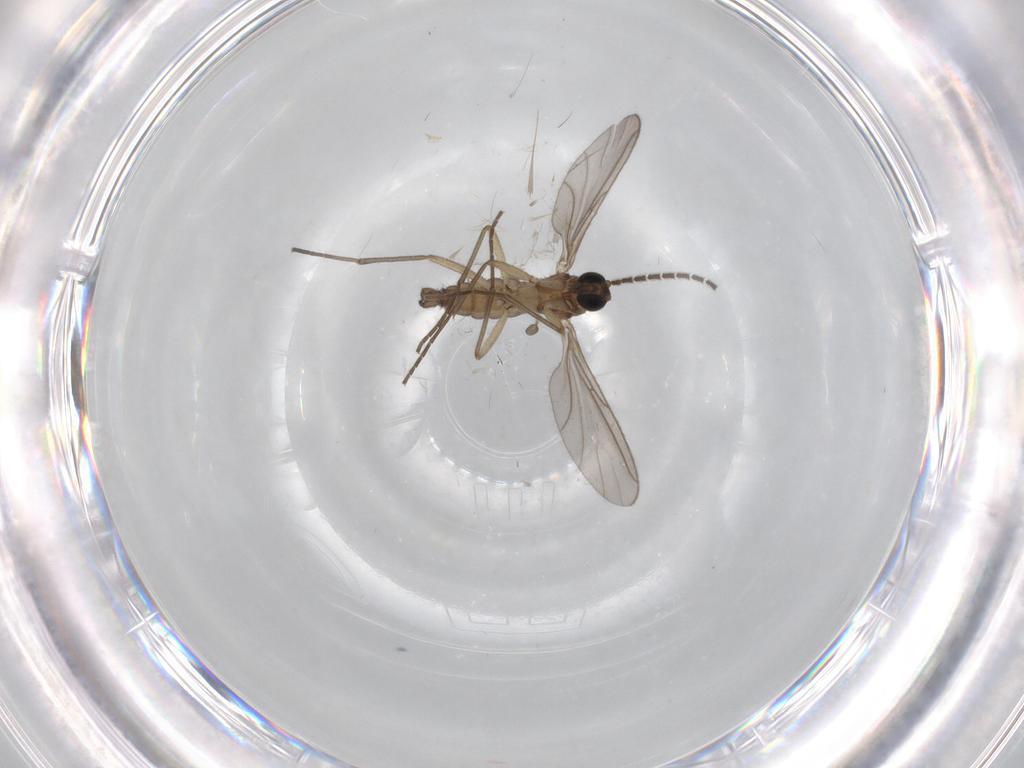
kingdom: Animalia
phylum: Arthropoda
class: Insecta
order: Diptera
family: Sciaridae
